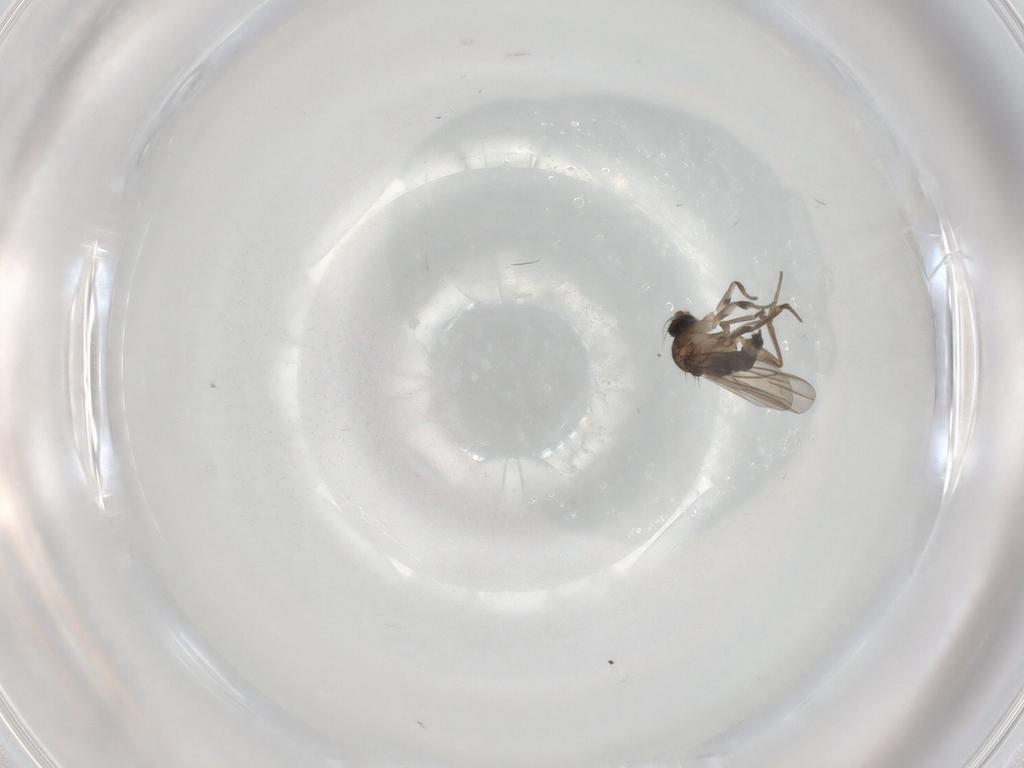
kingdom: Animalia
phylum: Arthropoda
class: Insecta
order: Diptera
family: Phoridae
